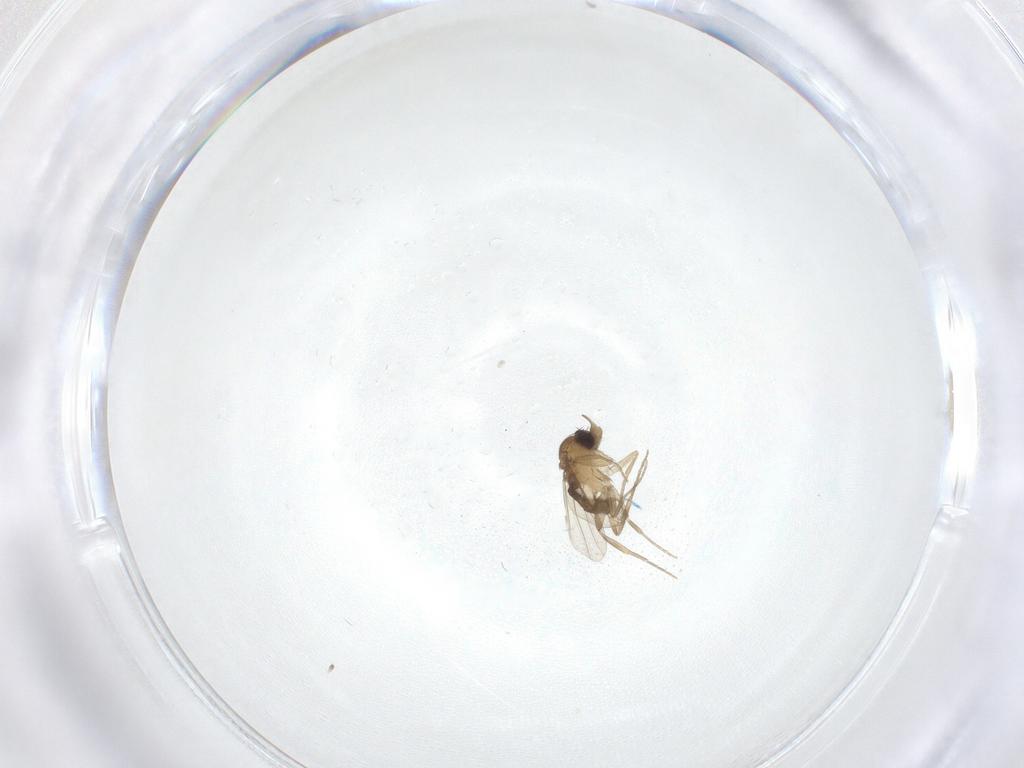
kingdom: Animalia
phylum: Arthropoda
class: Insecta
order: Diptera
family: Phoridae
